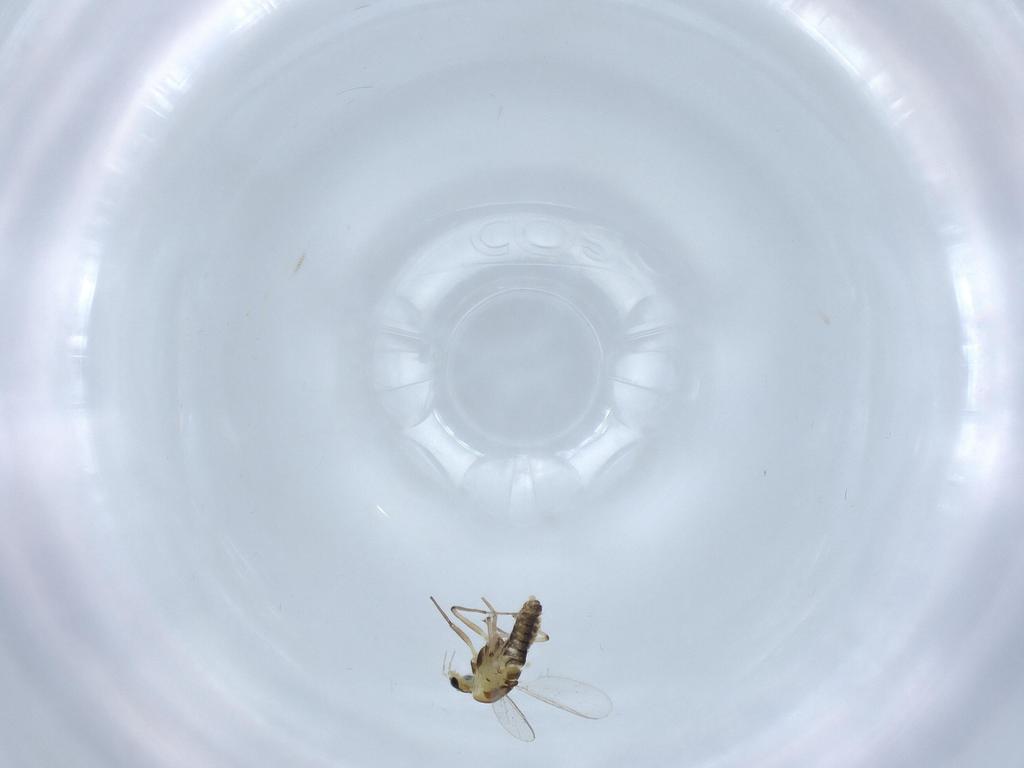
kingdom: Animalia
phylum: Arthropoda
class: Insecta
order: Diptera
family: Chironomidae
